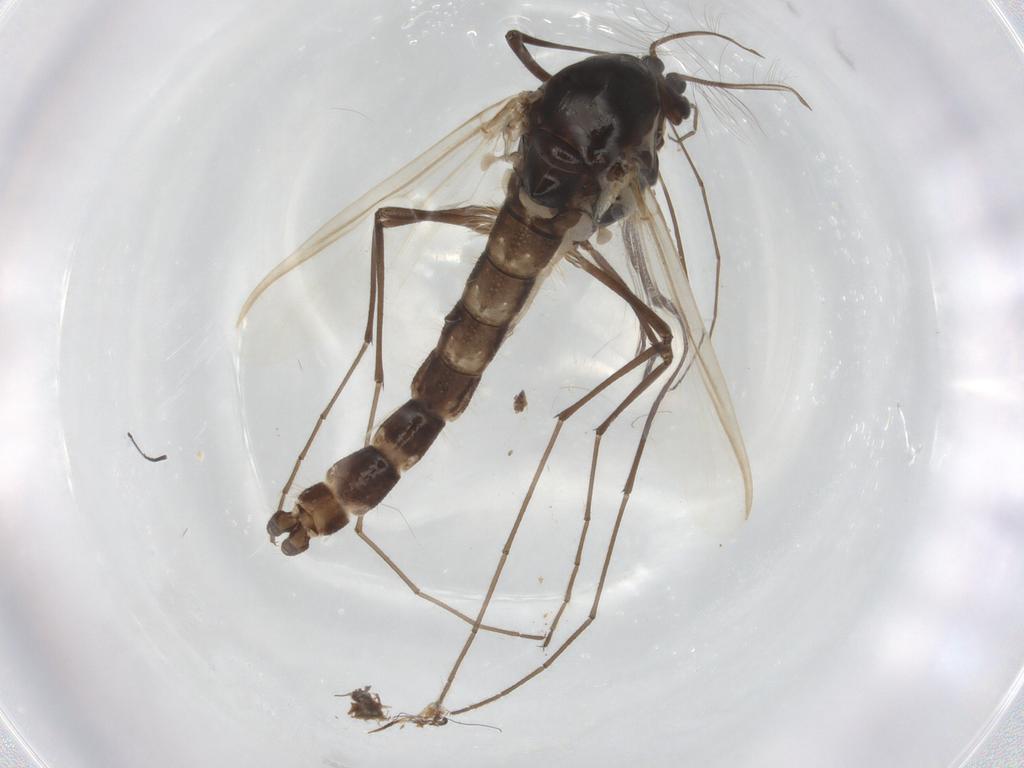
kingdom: Animalia
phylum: Arthropoda
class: Insecta
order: Diptera
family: Chironomidae
